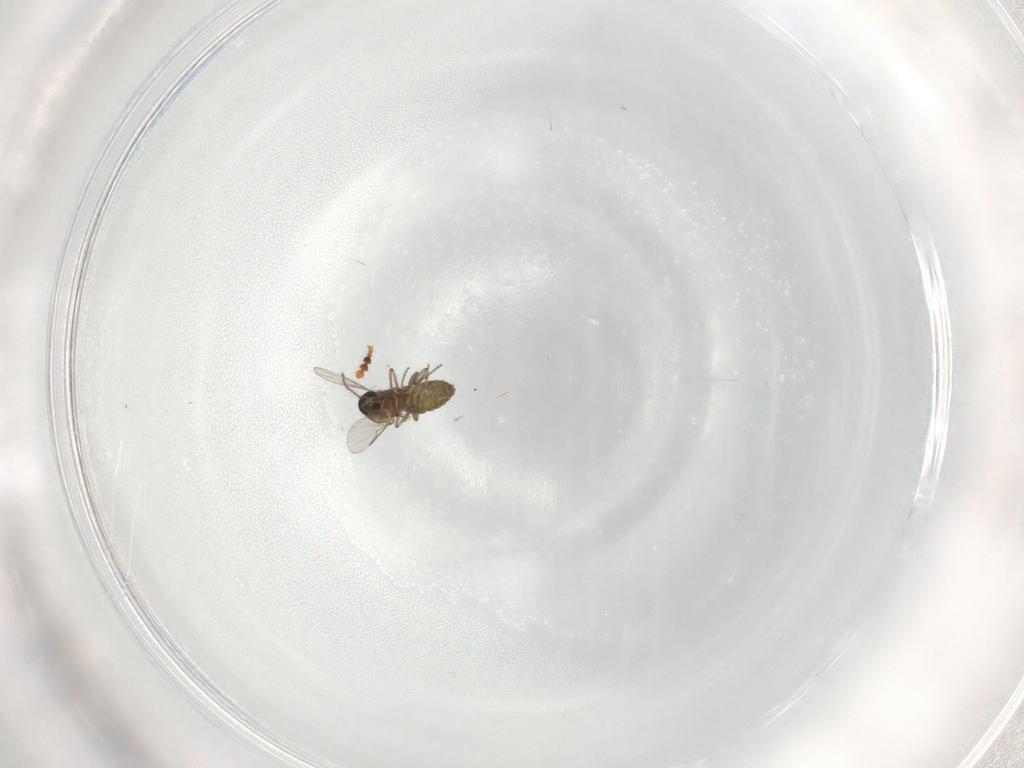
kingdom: Animalia
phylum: Arthropoda
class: Insecta
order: Diptera
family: Ceratopogonidae
